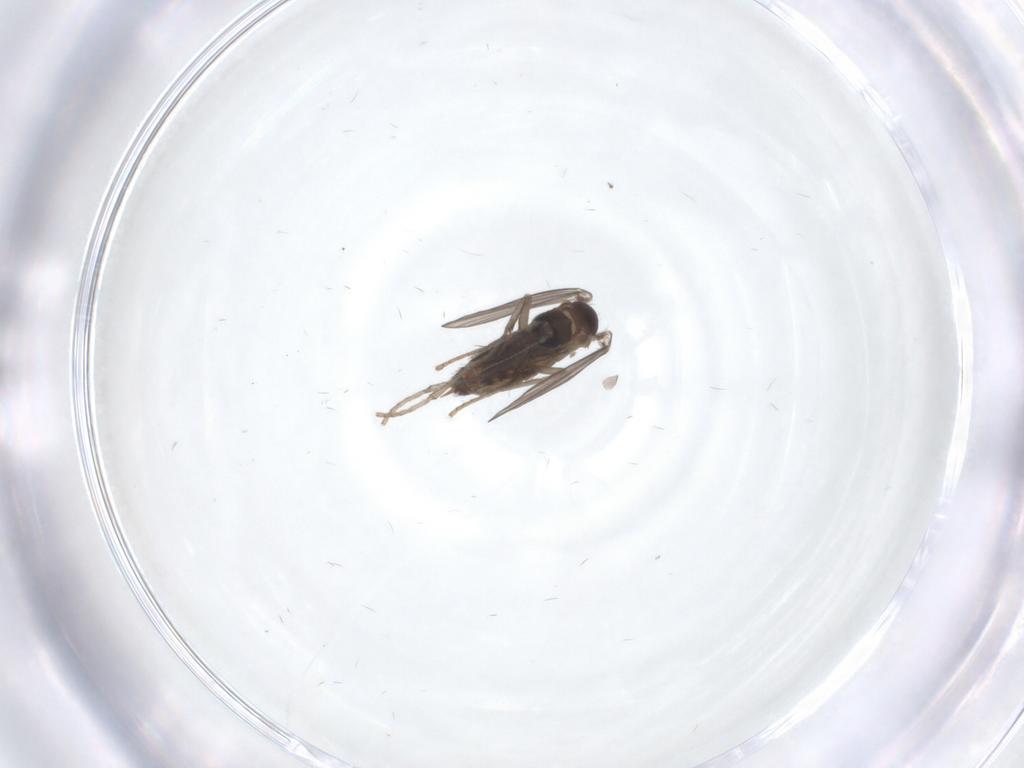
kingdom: Animalia
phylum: Arthropoda
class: Insecta
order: Diptera
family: Psychodidae
